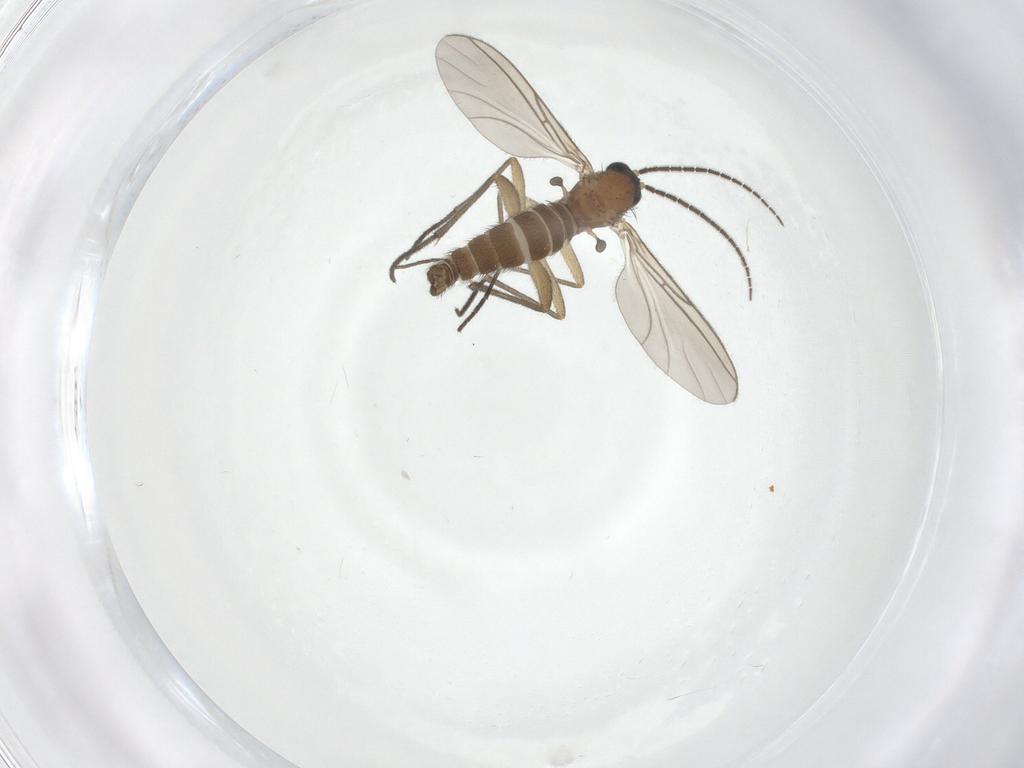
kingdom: Animalia
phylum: Arthropoda
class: Insecta
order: Diptera
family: Sciaridae
